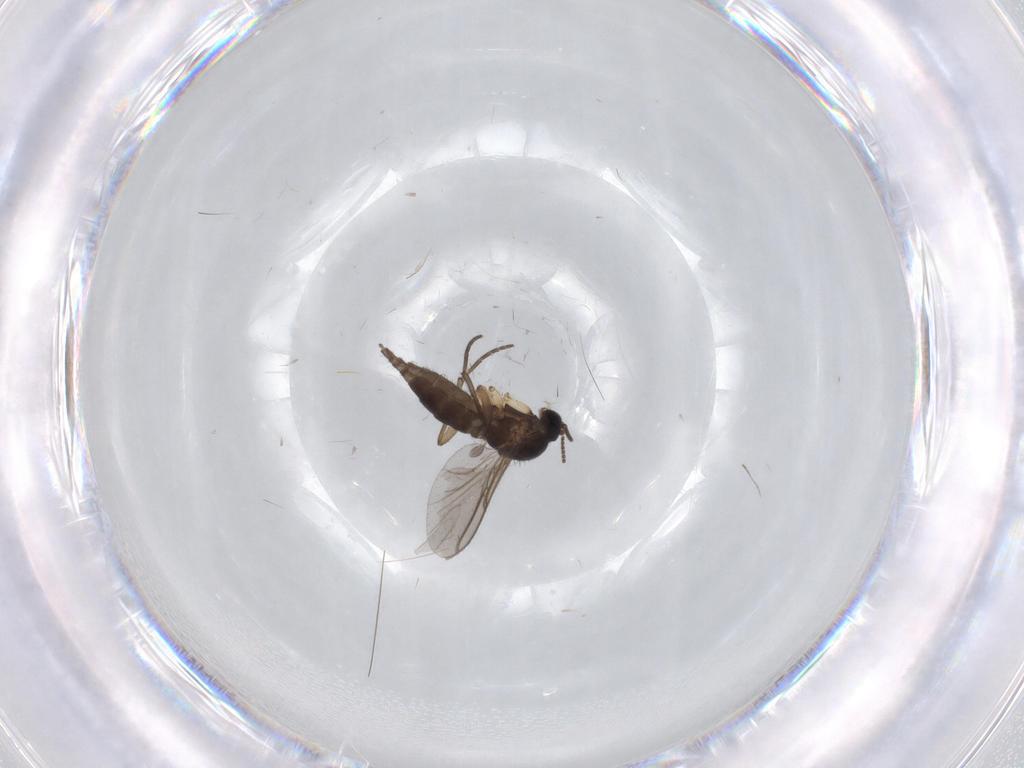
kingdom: Animalia
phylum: Arthropoda
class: Insecta
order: Diptera
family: Sciaridae
